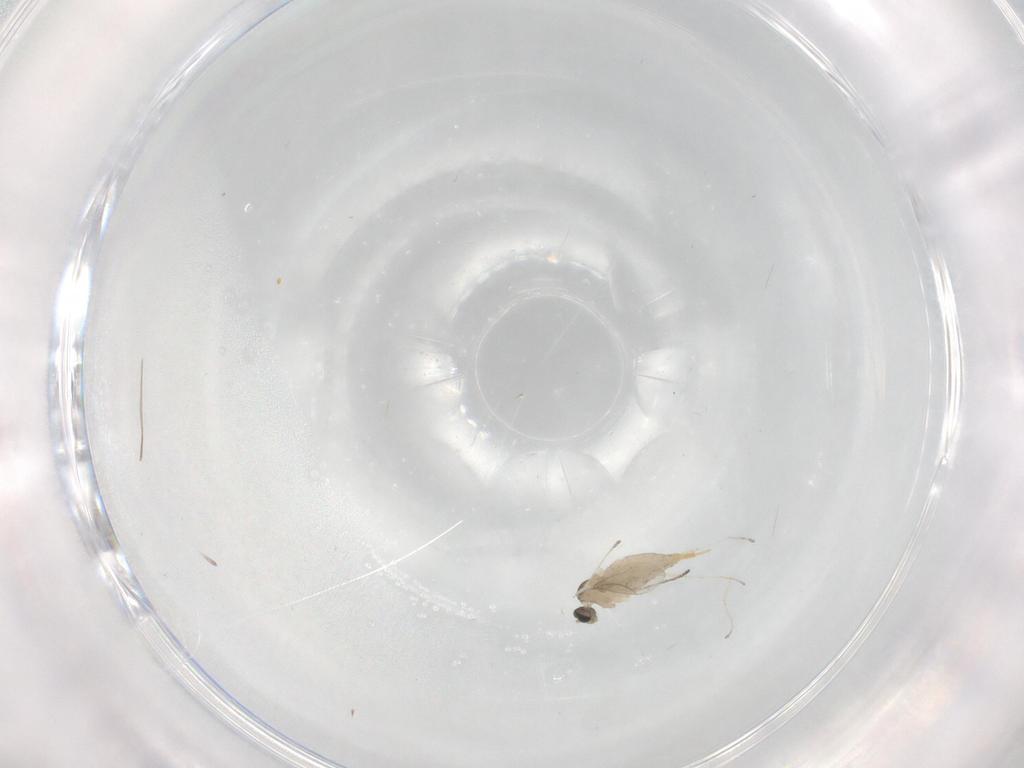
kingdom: Animalia
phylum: Arthropoda
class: Insecta
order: Diptera
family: Cecidomyiidae
